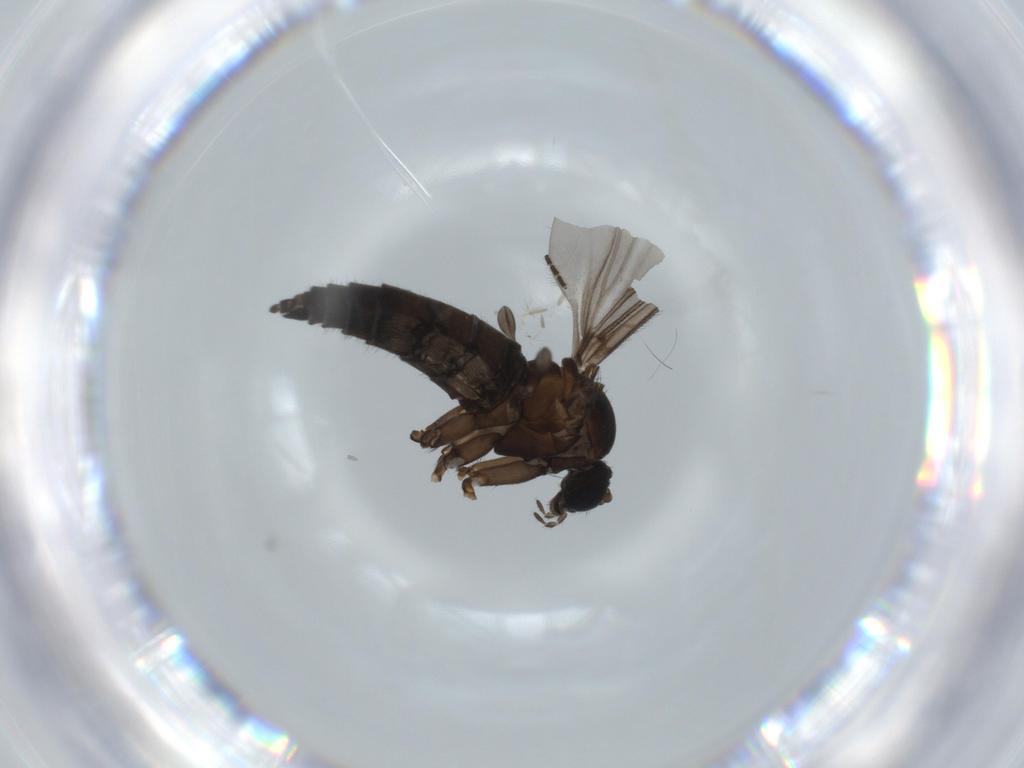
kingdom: Animalia
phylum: Arthropoda
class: Insecta
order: Diptera
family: Sciaridae
